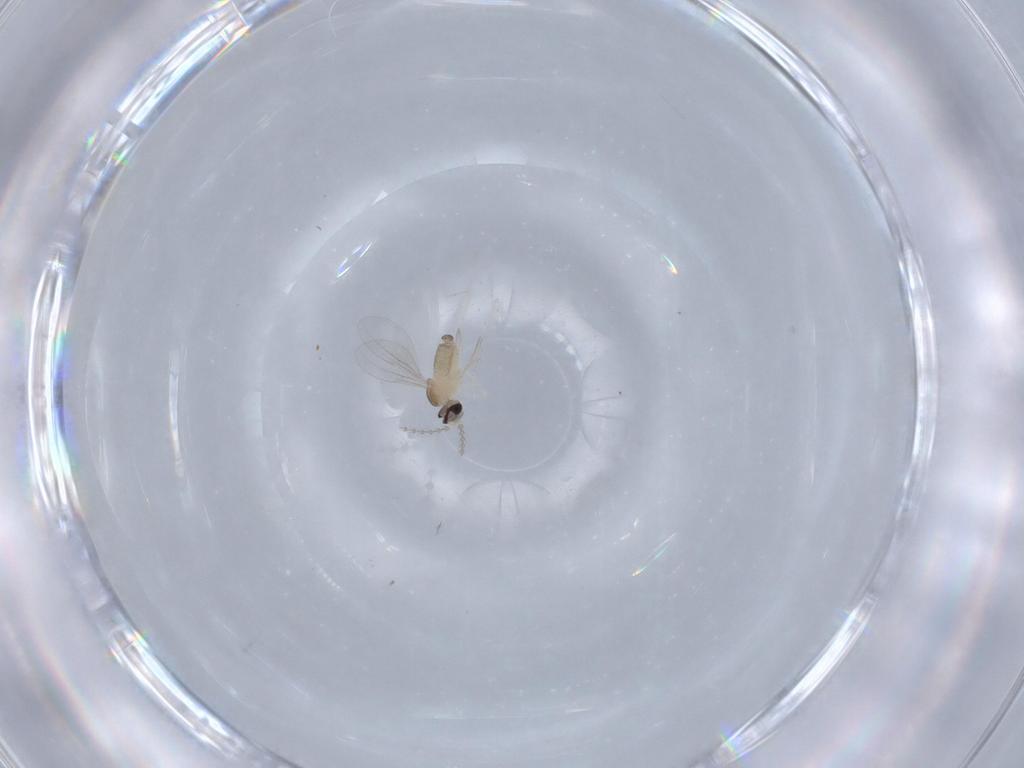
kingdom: Animalia
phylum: Arthropoda
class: Insecta
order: Diptera
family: Cecidomyiidae
